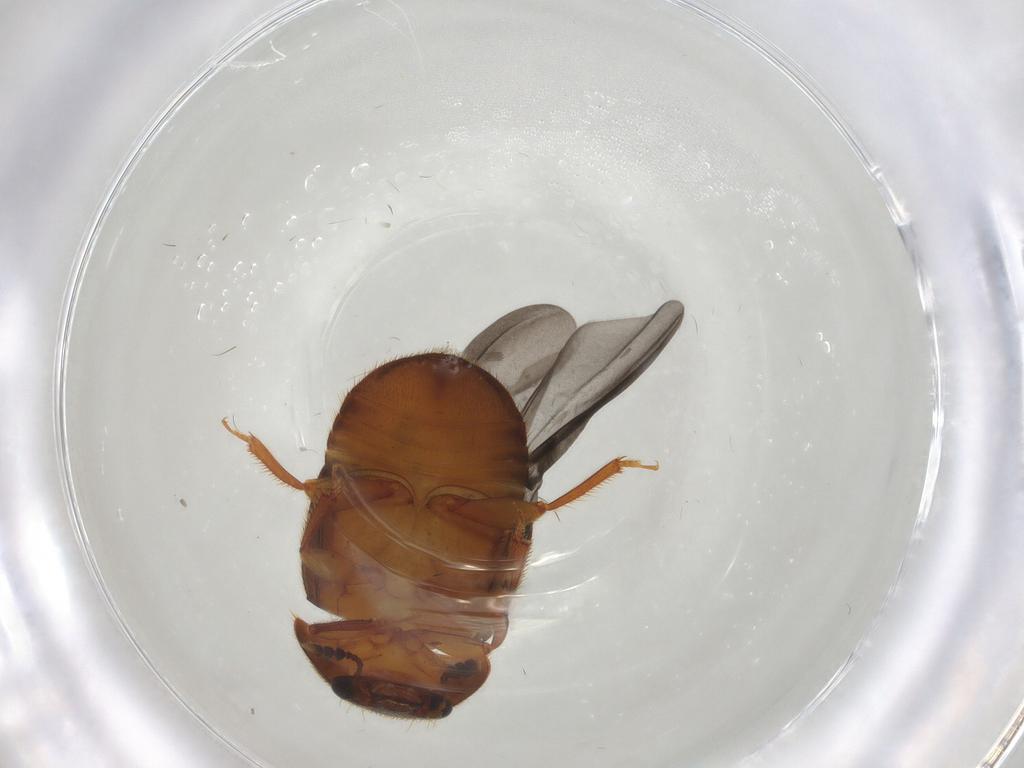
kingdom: Animalia
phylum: Arthropoda
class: Insecta
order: Coleoptera
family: Nitidulidae
